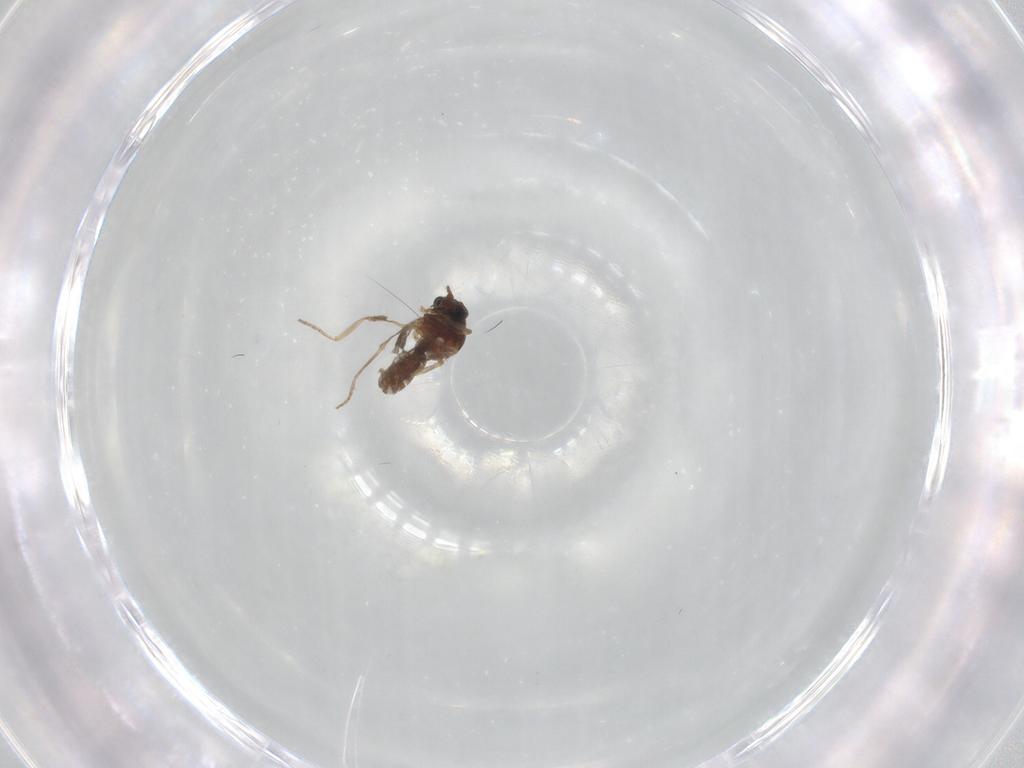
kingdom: Animalia
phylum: Arthropoda
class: Insecta
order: Diptera
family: Ceratopogonidae
